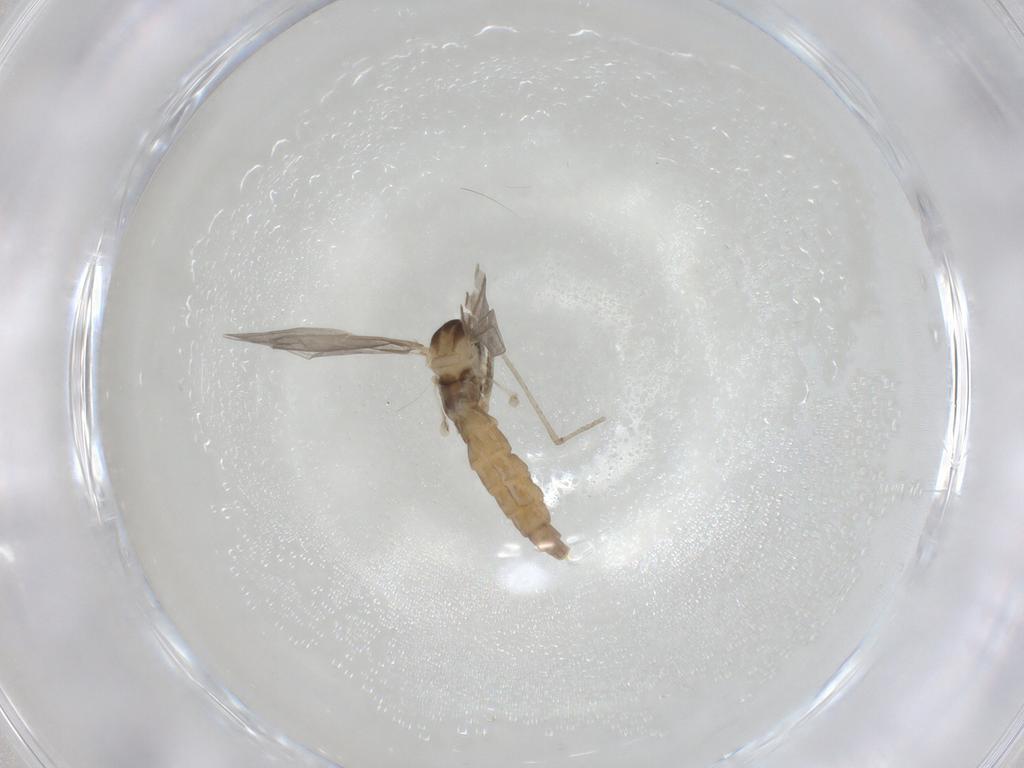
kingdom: Animalia
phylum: Arthropoda
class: Insecta
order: Diptera
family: Cecidomyiidae
